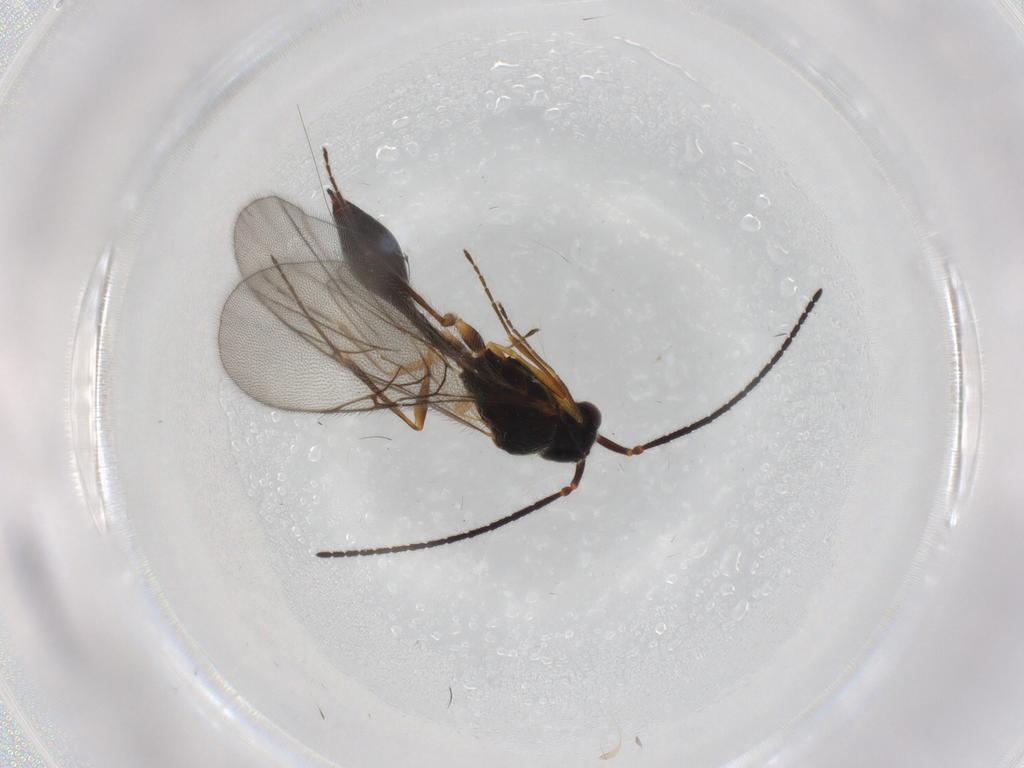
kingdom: Animalia
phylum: Arthropoda
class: Insecta
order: Hymenoptera
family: Diapriidae
